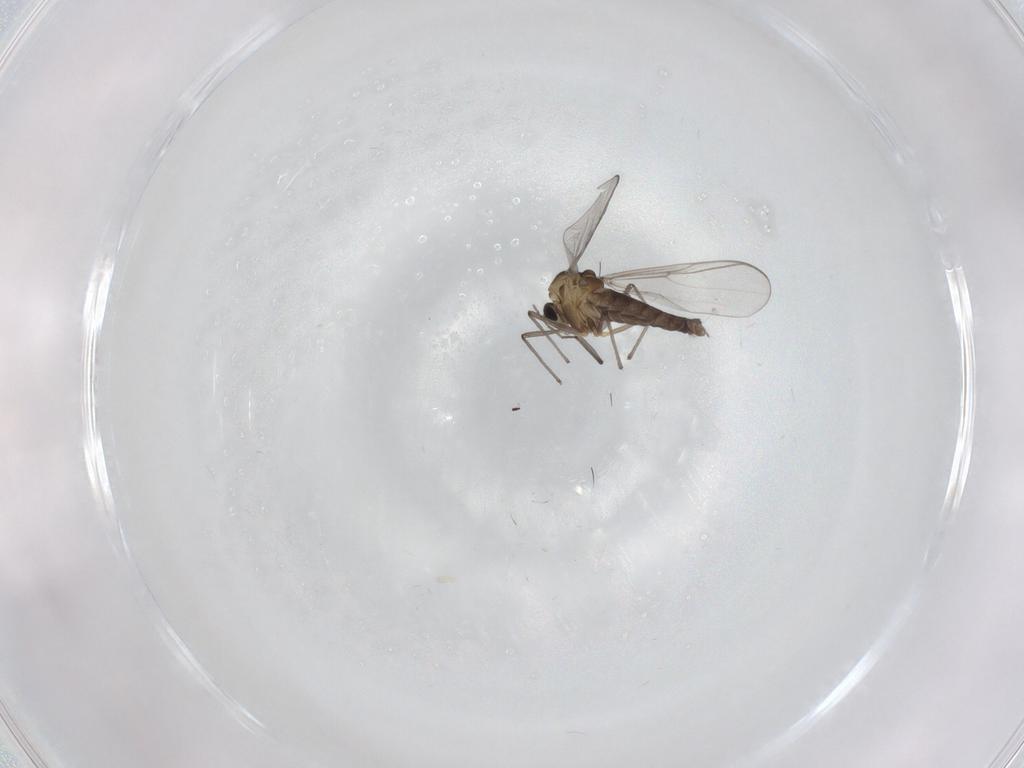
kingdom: Animalia
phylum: Arthropoda
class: Insecta
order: Diptera
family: Chironomidae
